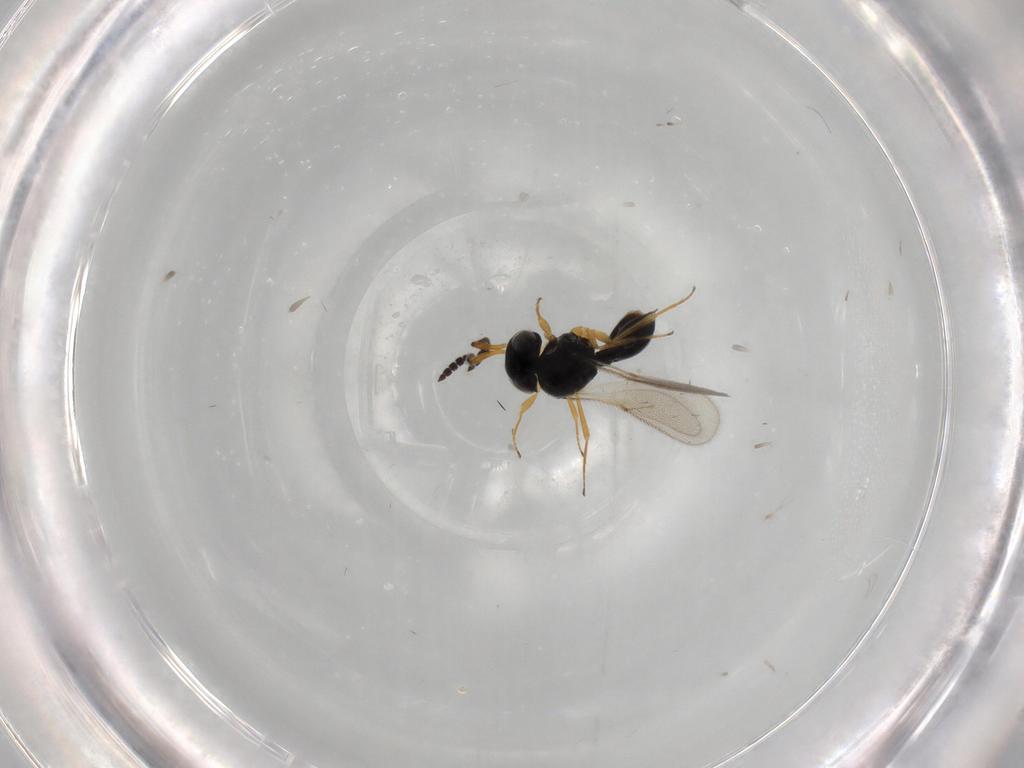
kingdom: Animalia
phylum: Arthropoda
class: Insecta
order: Hymenoptera
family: Scelionidae
